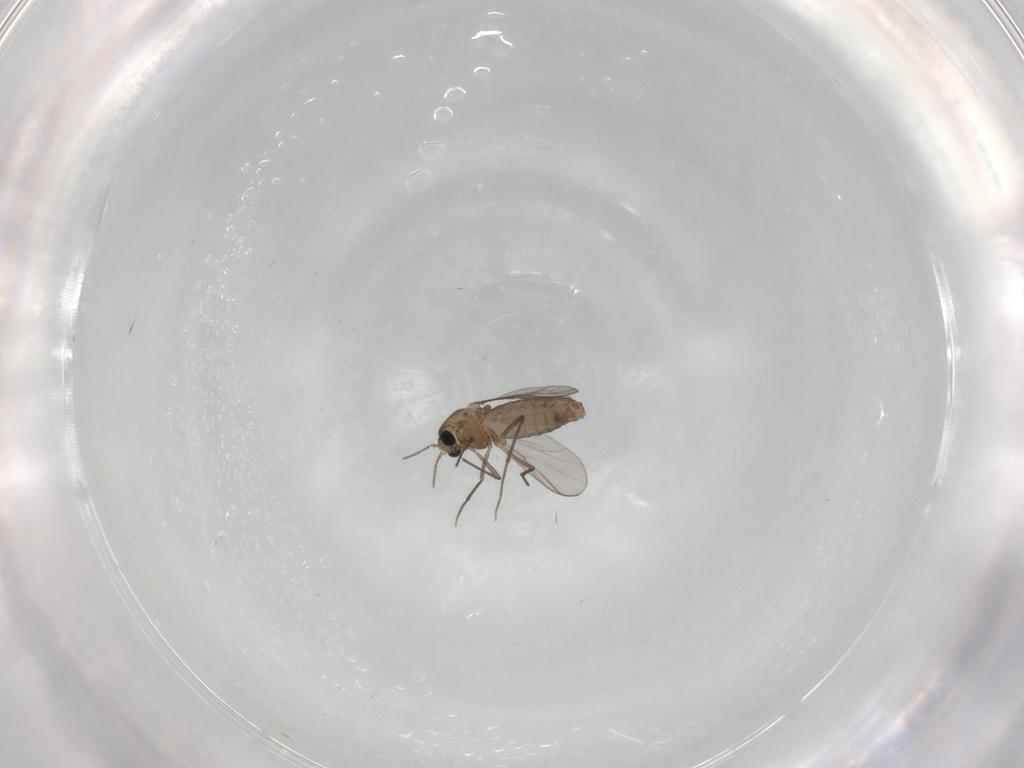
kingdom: Animalia
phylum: Arthropoda
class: Insecta
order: Diptera
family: Chironomidae
